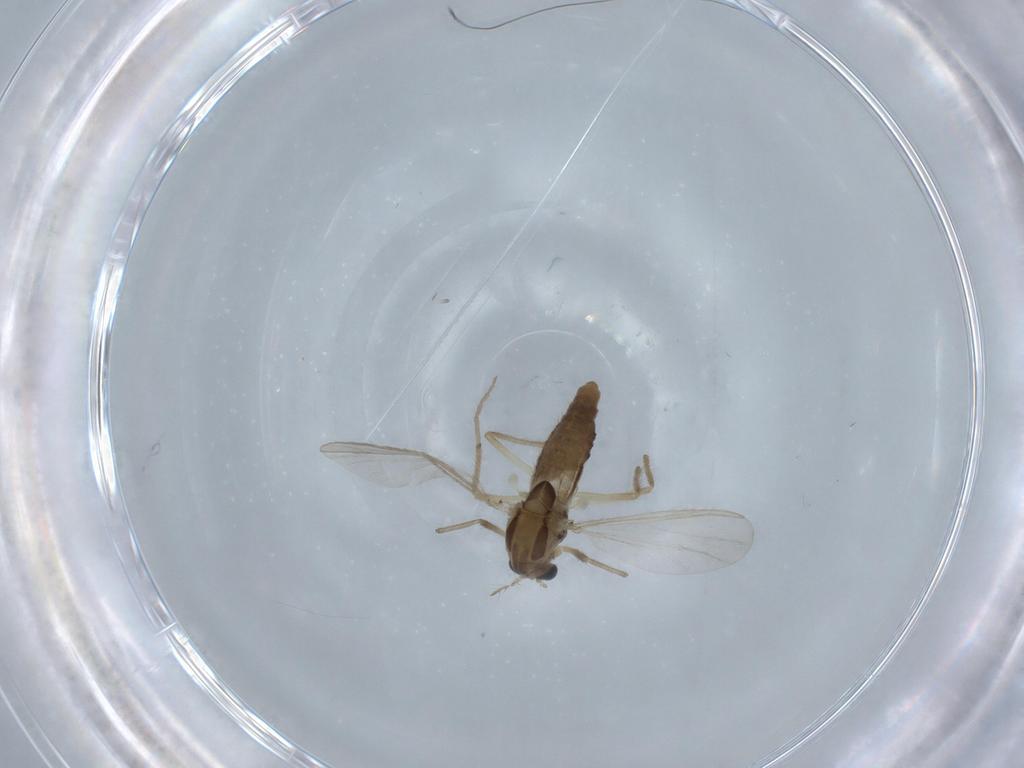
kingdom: Animalia
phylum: Arthropoda
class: Insecta
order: Diptera
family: Chironomidae
